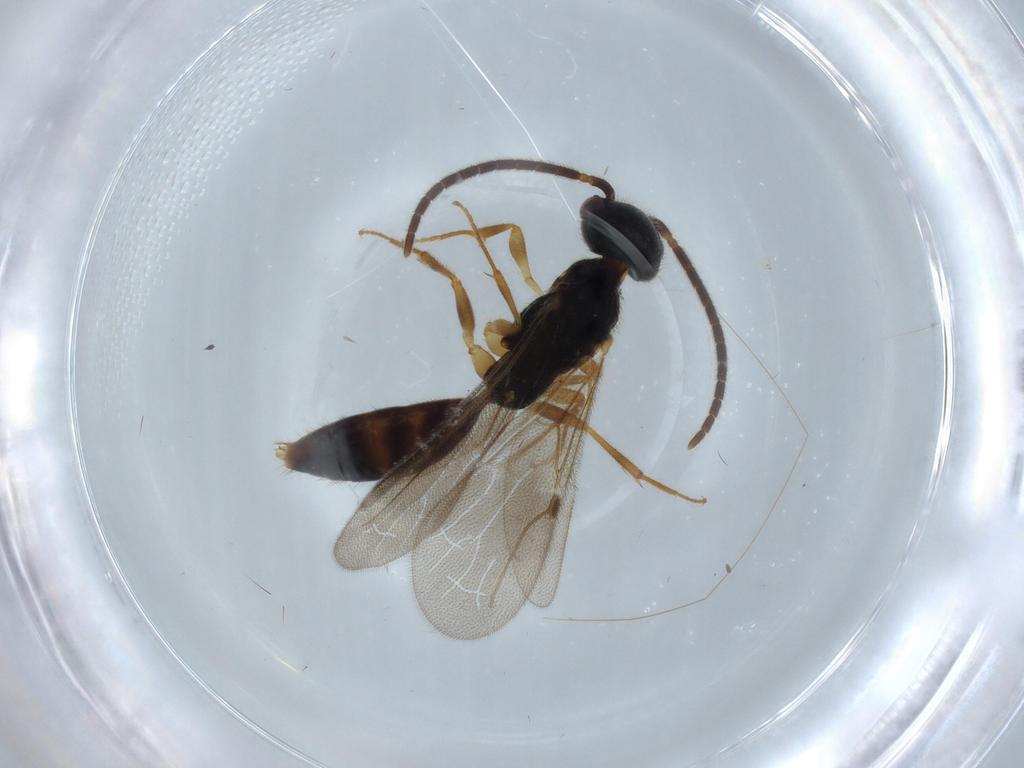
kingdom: Animalia
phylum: Arthropoda
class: Insecta
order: Hymenoptera
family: Bethylidae
